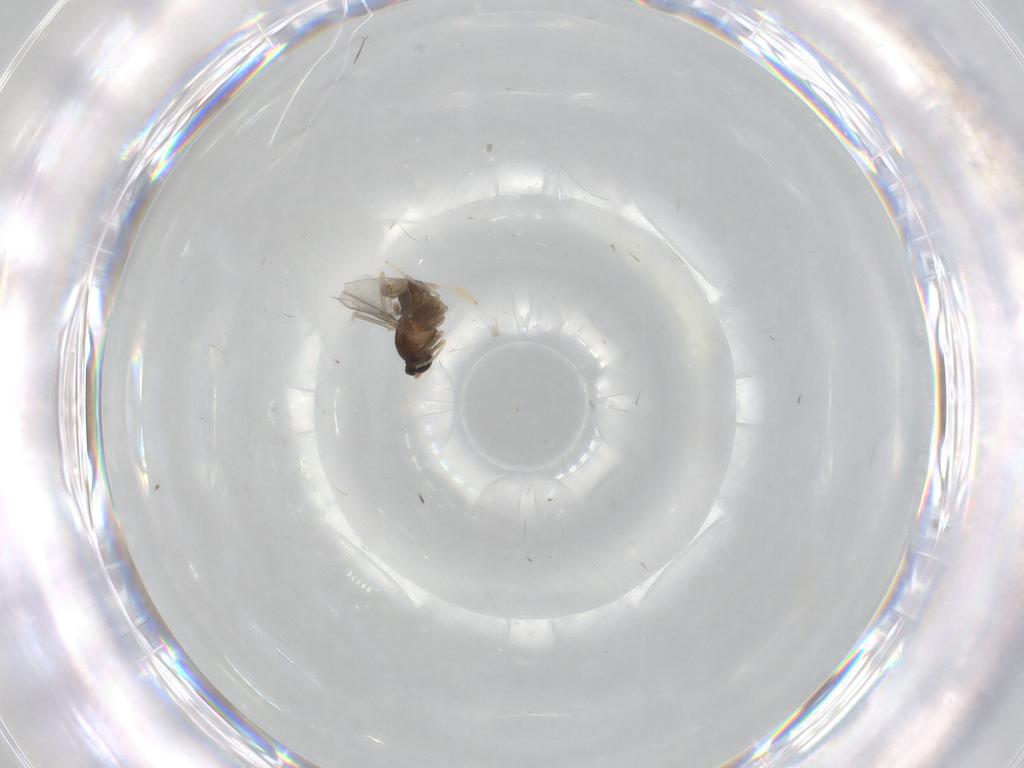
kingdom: Animalia
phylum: Arthropoda
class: Insecta
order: Diptera
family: Cecidomyiidae
